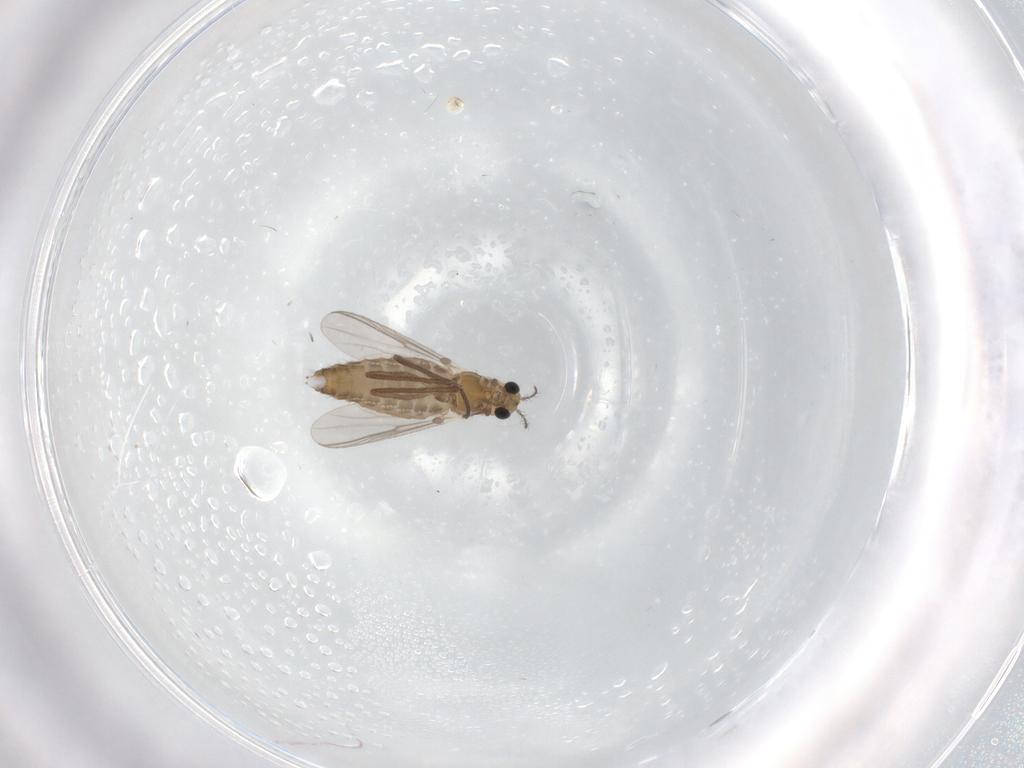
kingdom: Animalia
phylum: Arthropoda
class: Insecta
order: Diptera
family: Chironomidae
